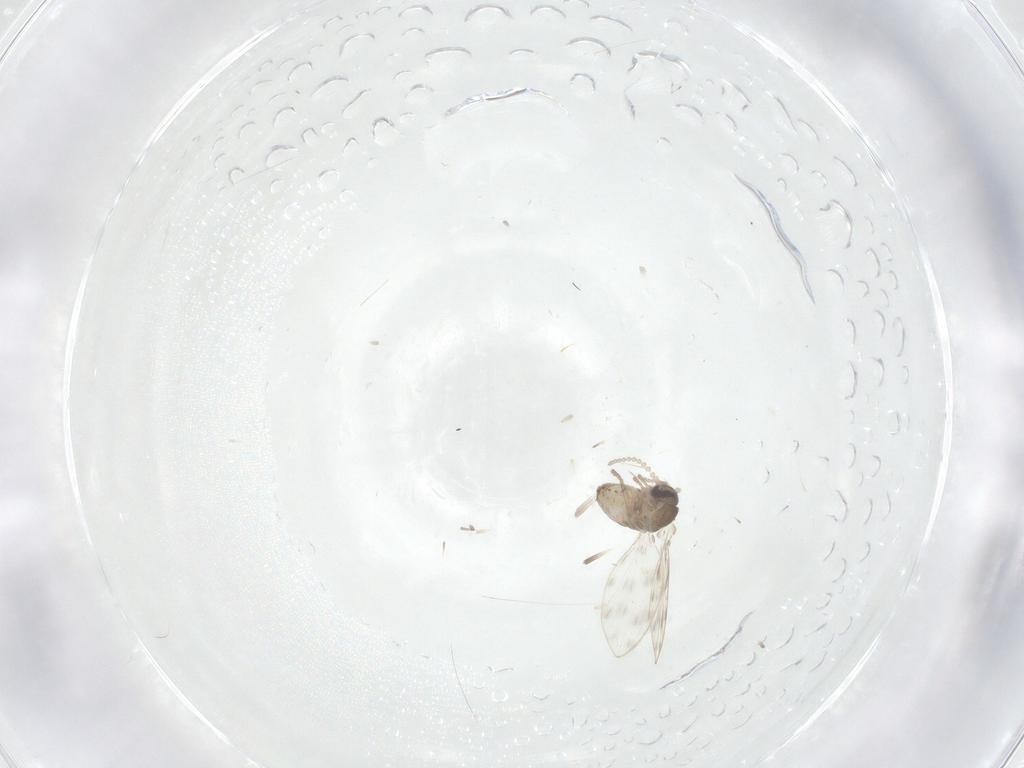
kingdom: Animalia
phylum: Arthropoda
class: Insecta
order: Diptera
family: Psychodidae
